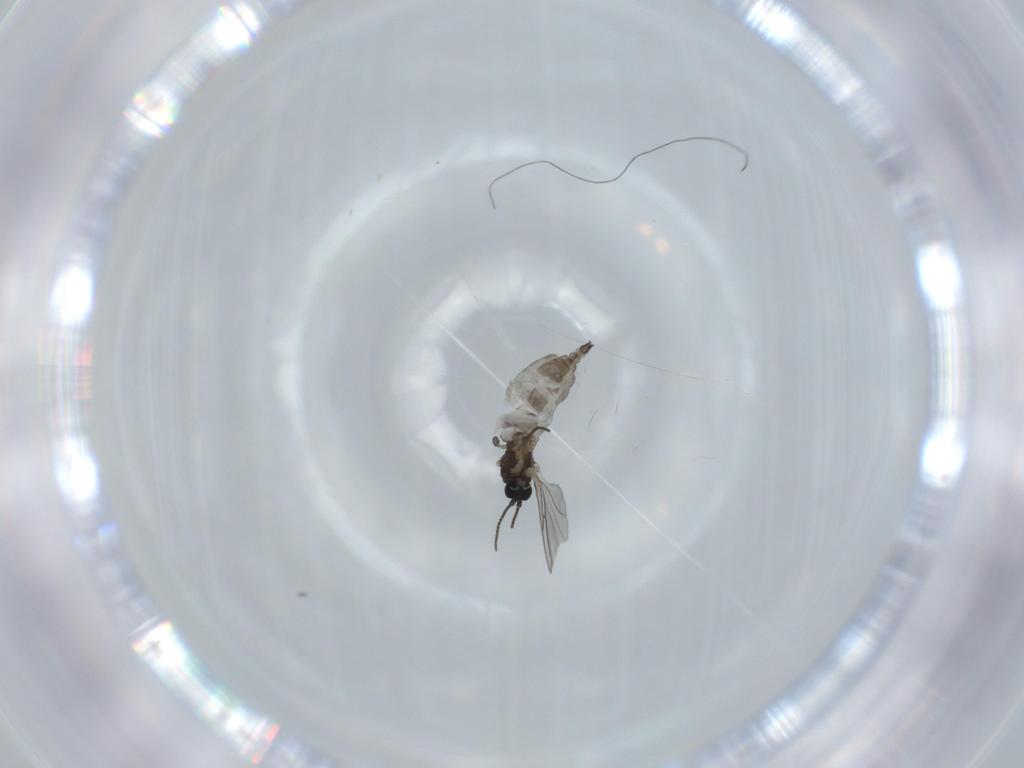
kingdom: Animalia
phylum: Arthropoda
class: Insecta
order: Diptera
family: Sciaridae
